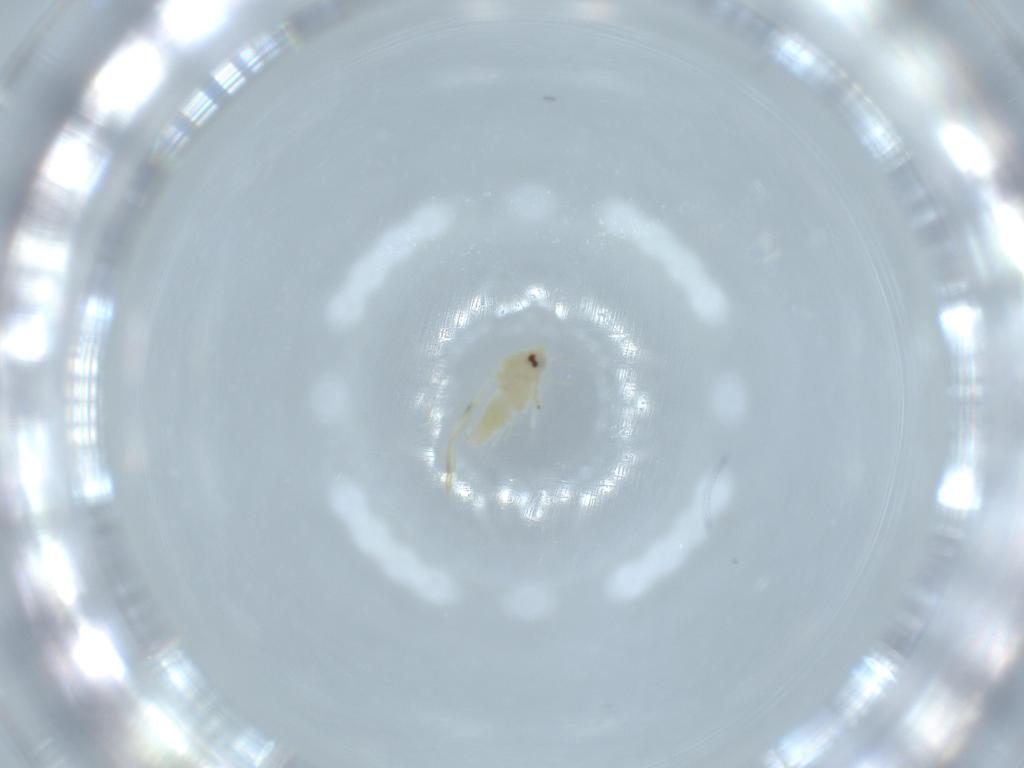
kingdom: Animalia
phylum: Arthropoda
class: Insecta
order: Hemiptera
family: Aleyrodidae
